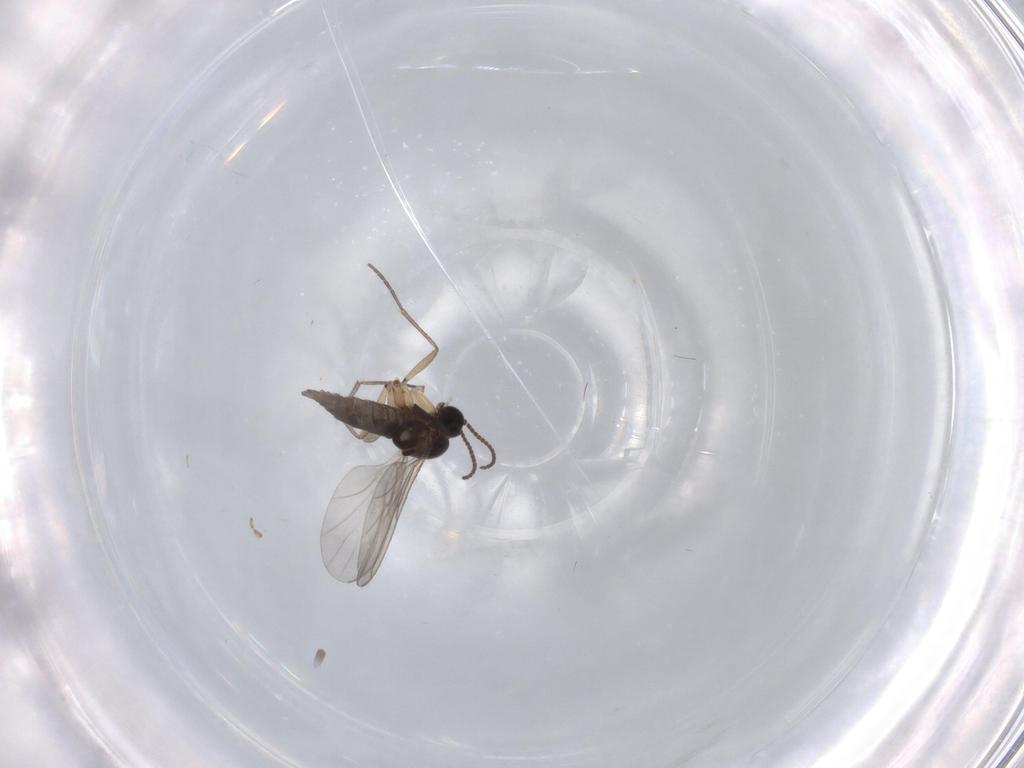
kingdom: Animalia
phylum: Arthropoda
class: Insecta
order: Diptera
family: Sciaridae
